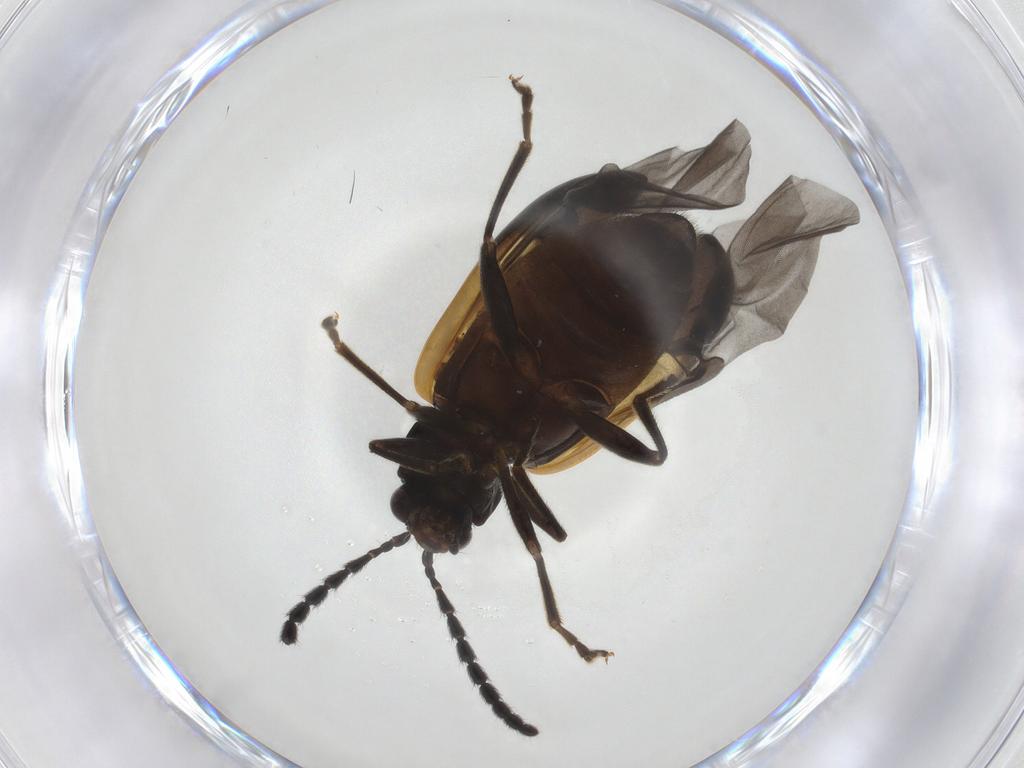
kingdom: Animalia
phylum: Arthropoda
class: Insecta
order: Coleoptera
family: Chrysomelidae
